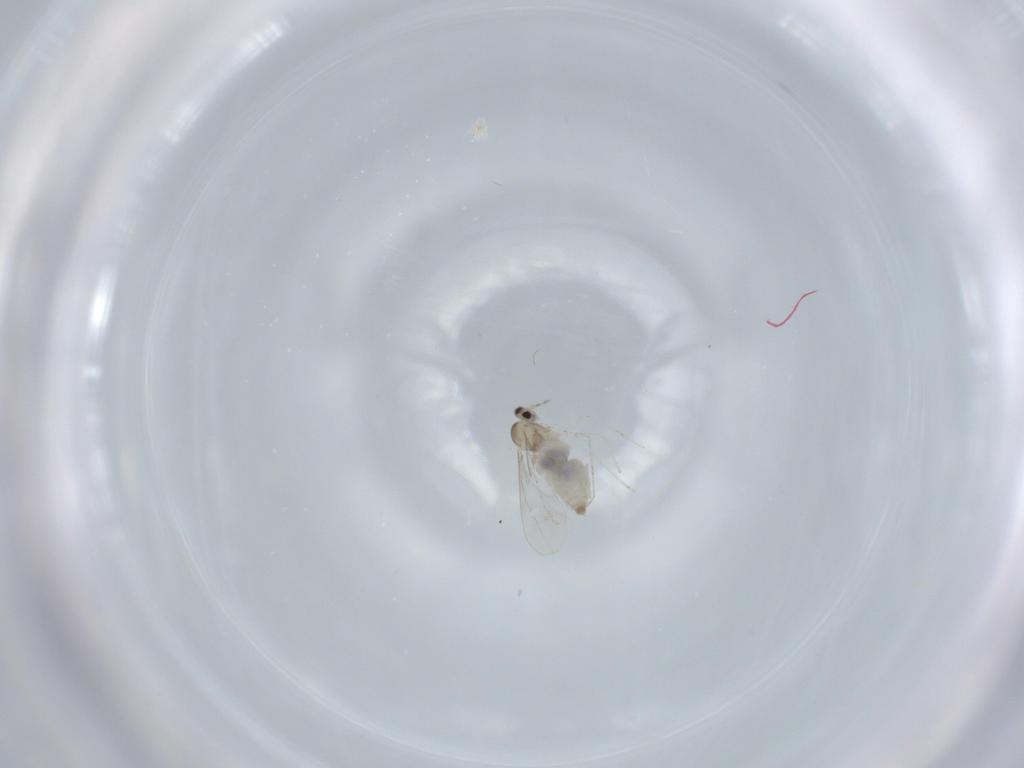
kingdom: Animalia
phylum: Arthropoda
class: Insecta
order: Diptera
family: Cecidomyiidae
